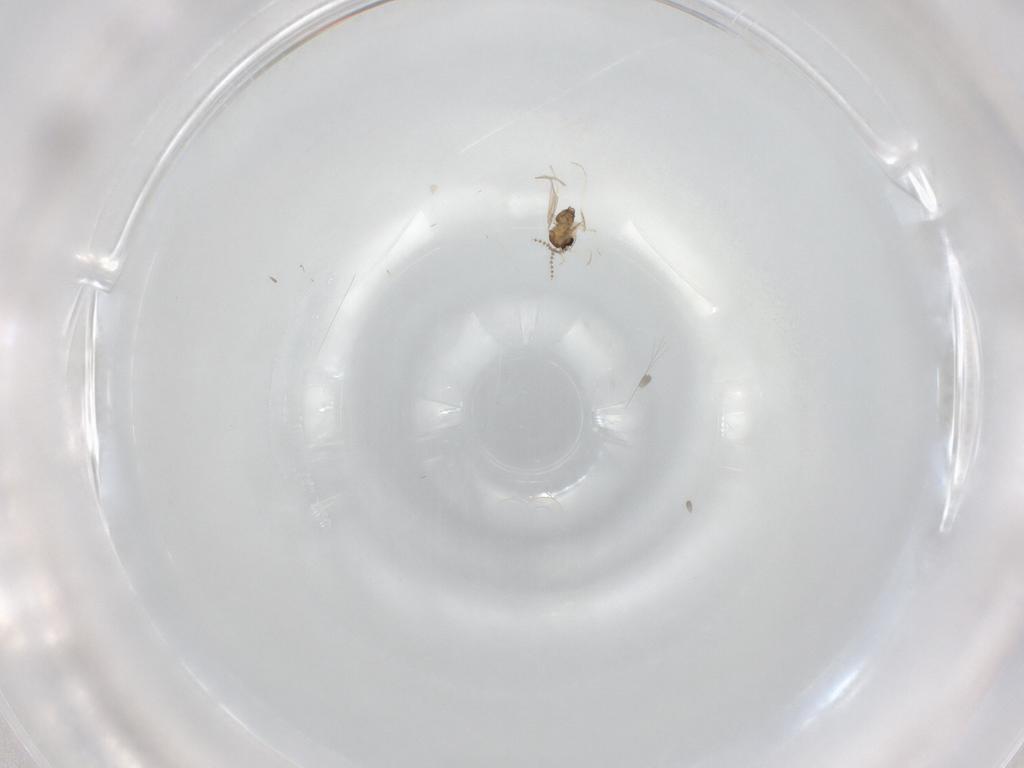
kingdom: Animalia
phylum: Arthropoda
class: Insecta
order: Diptera
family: Cecidomyiidae
